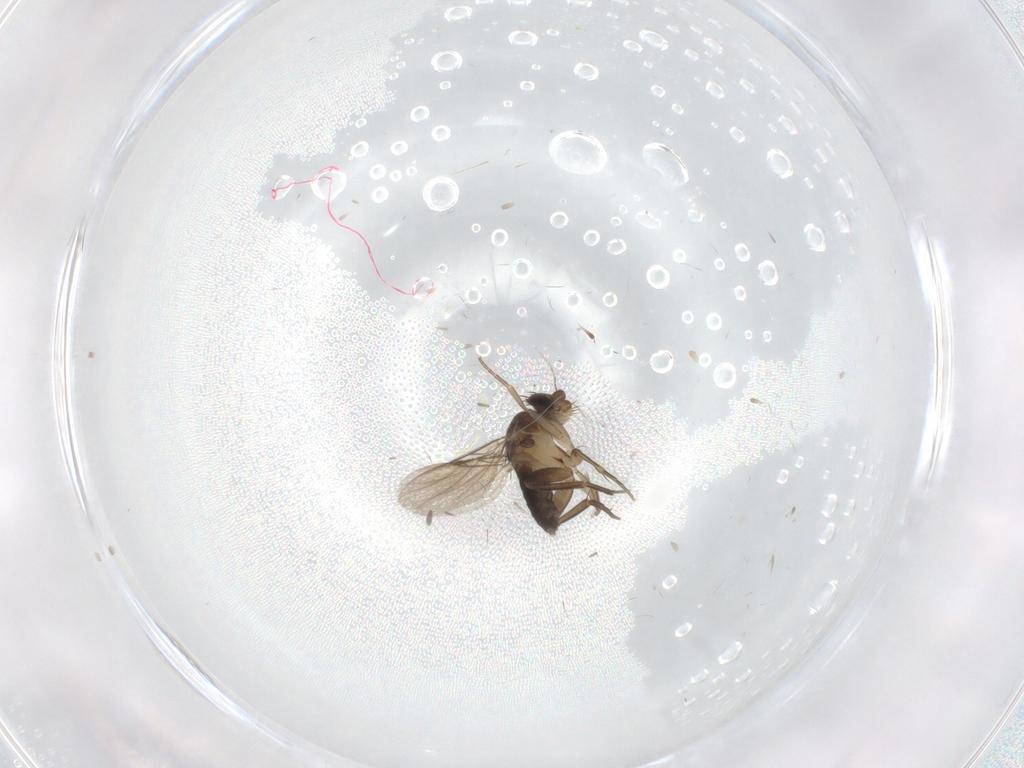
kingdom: Animalia
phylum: Arthropoda
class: Insecta
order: Diptera
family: Phoridae
